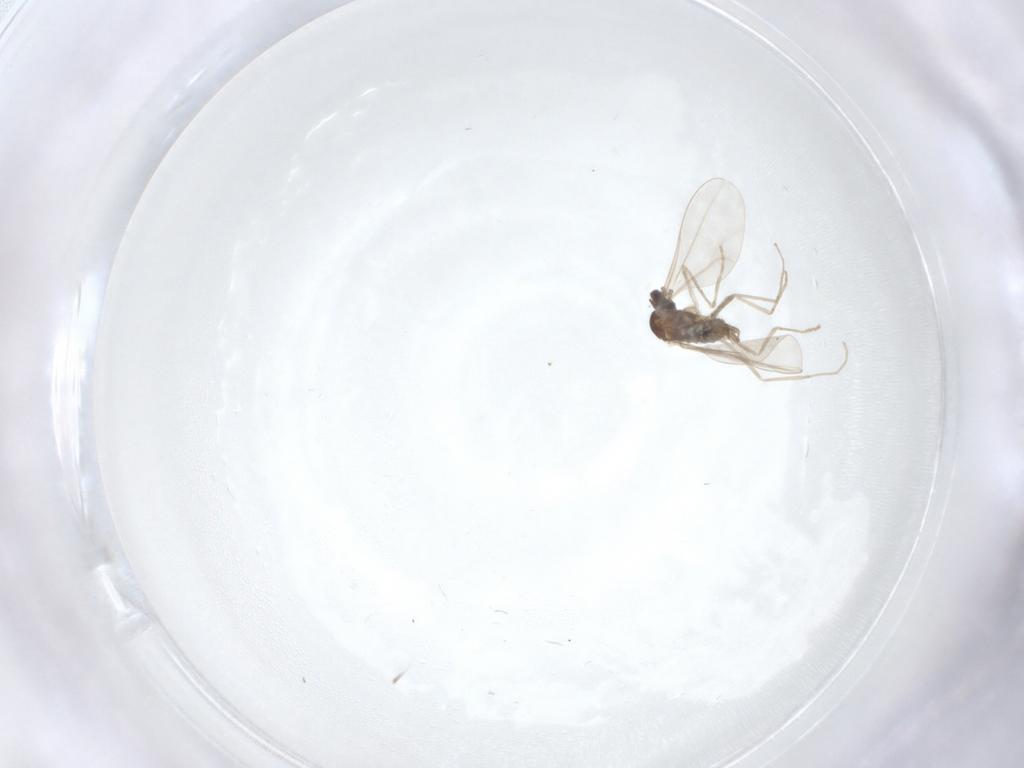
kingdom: Animalia
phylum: Arthropoda
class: Insecta
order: Diptera
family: Cecidomyiidae
